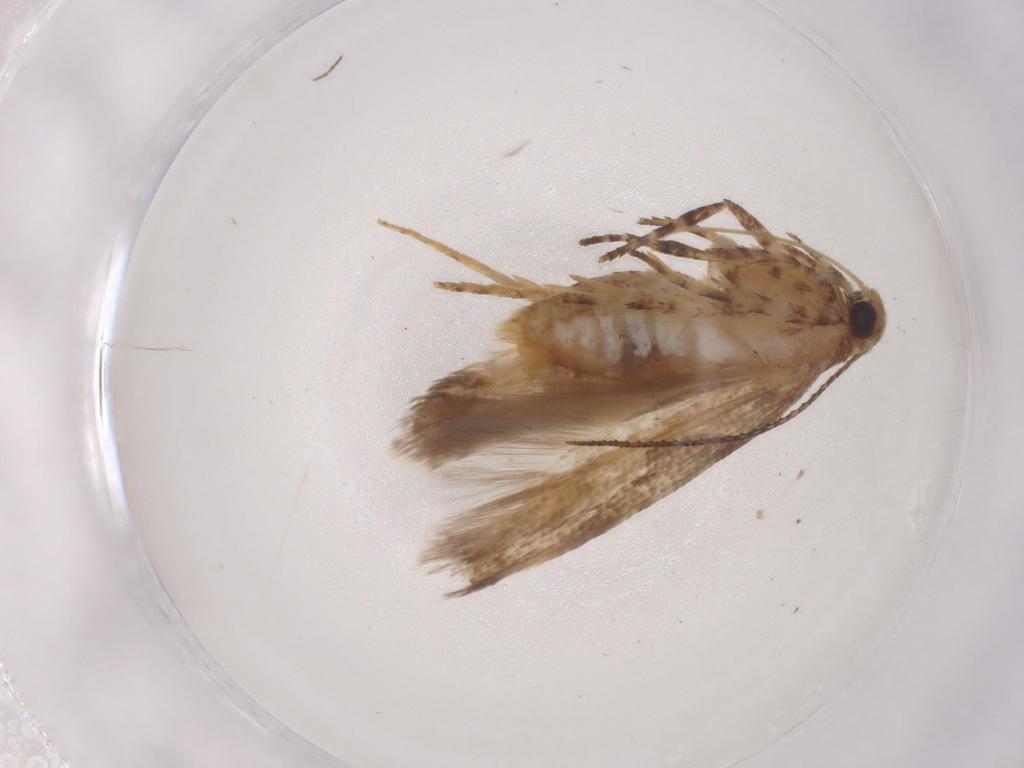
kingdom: Animalia
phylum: Arthropoda
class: Insecta
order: Lepidoptera
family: Gelechiidae
